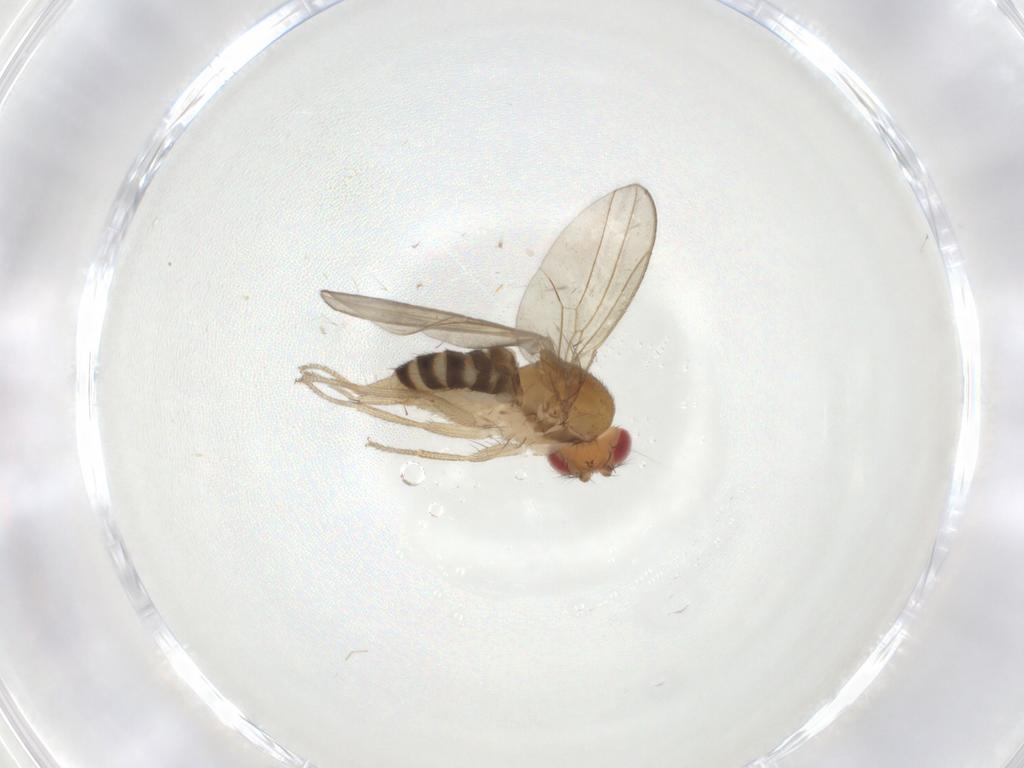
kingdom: Animalia
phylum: Arthropoda
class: Insecta
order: Diptera
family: Drosophilidae
